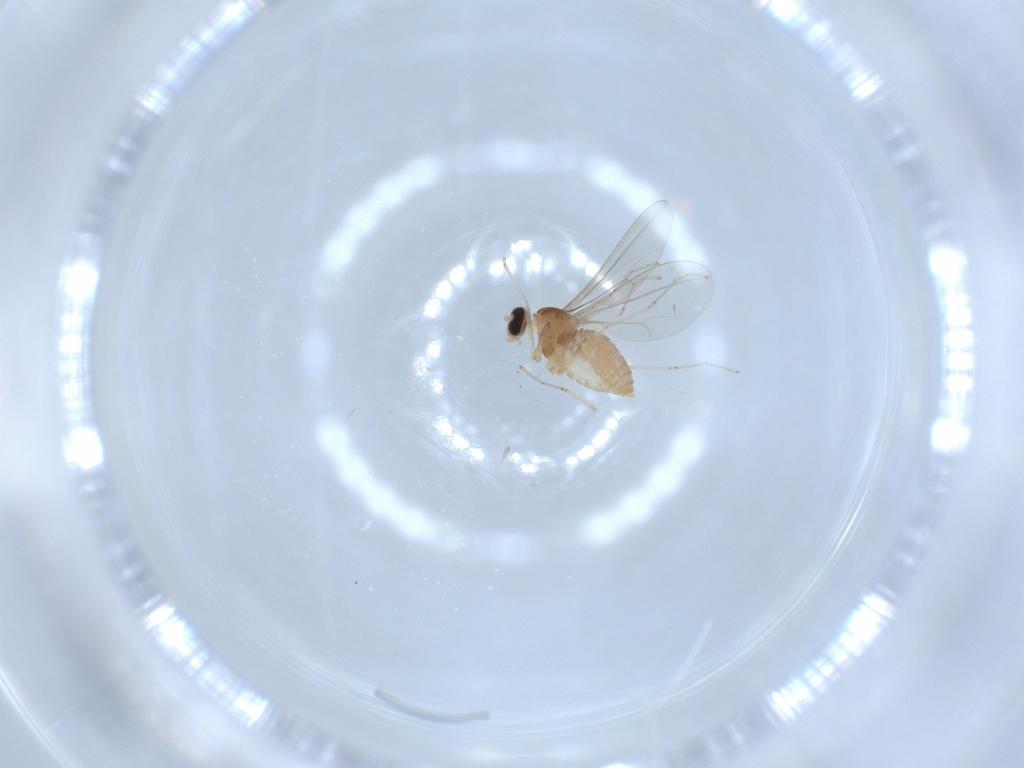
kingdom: Animalia
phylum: Arthropoda
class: Insecta
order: Diptera
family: Cecidomyiidae
